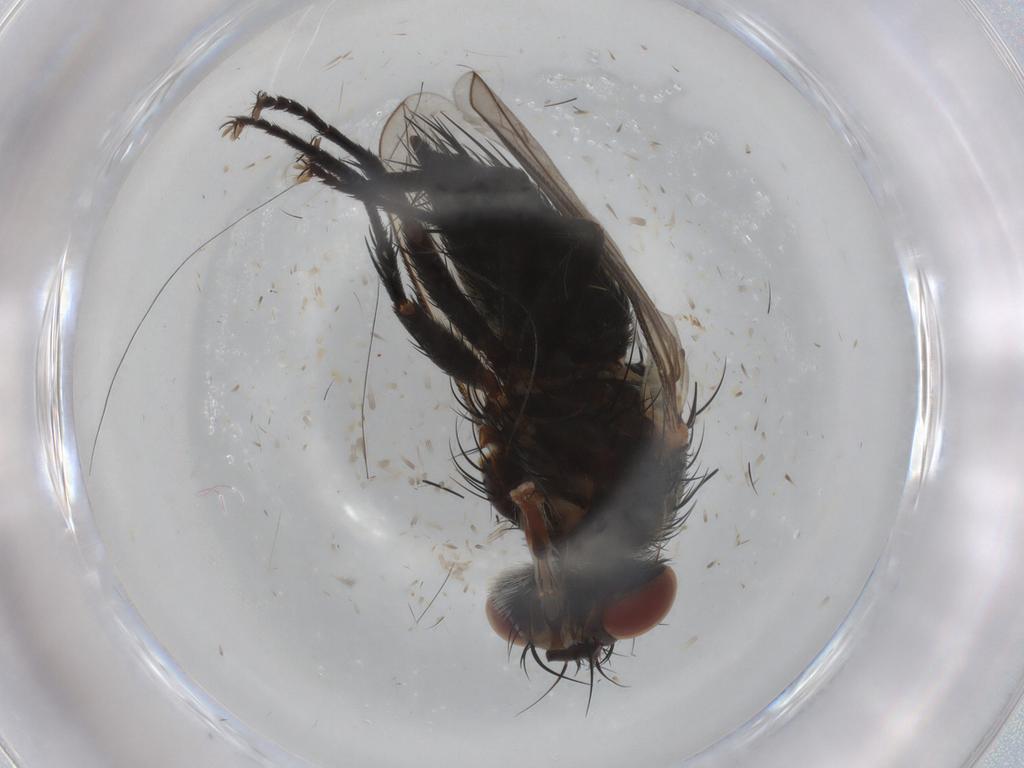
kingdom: Animalia
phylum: Arthropoda
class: Insecta
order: Diptera
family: Tachinidae
